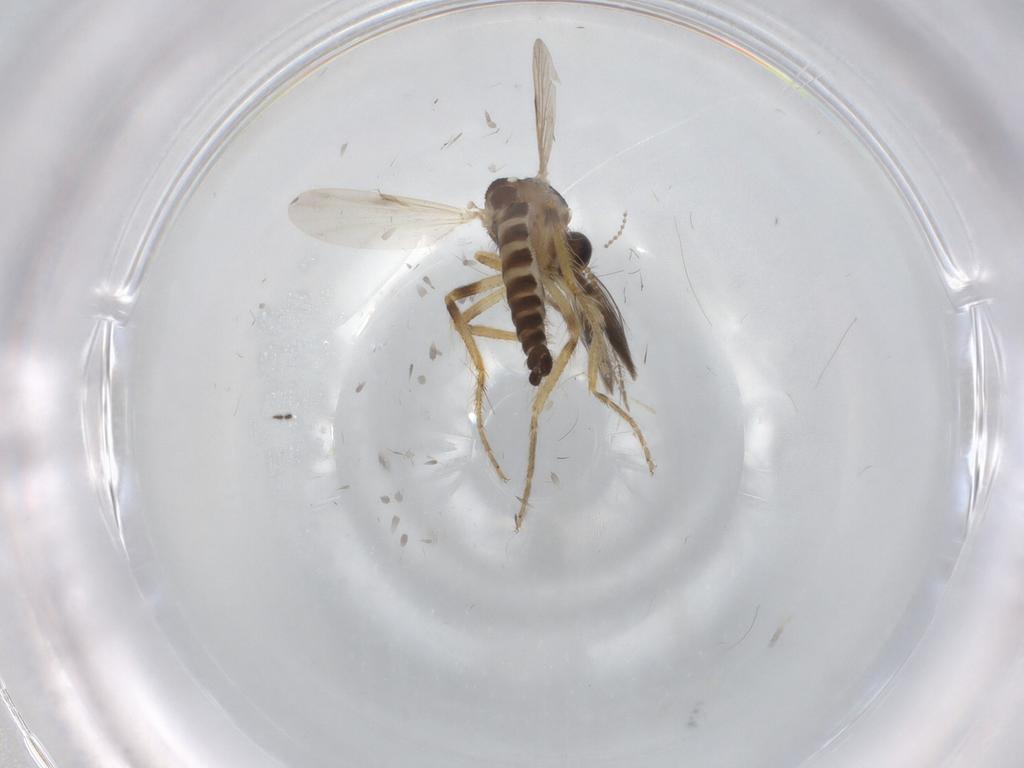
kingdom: Animalia
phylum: Arthropoda
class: Insecta
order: Diptera
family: Ceratopogonidae
